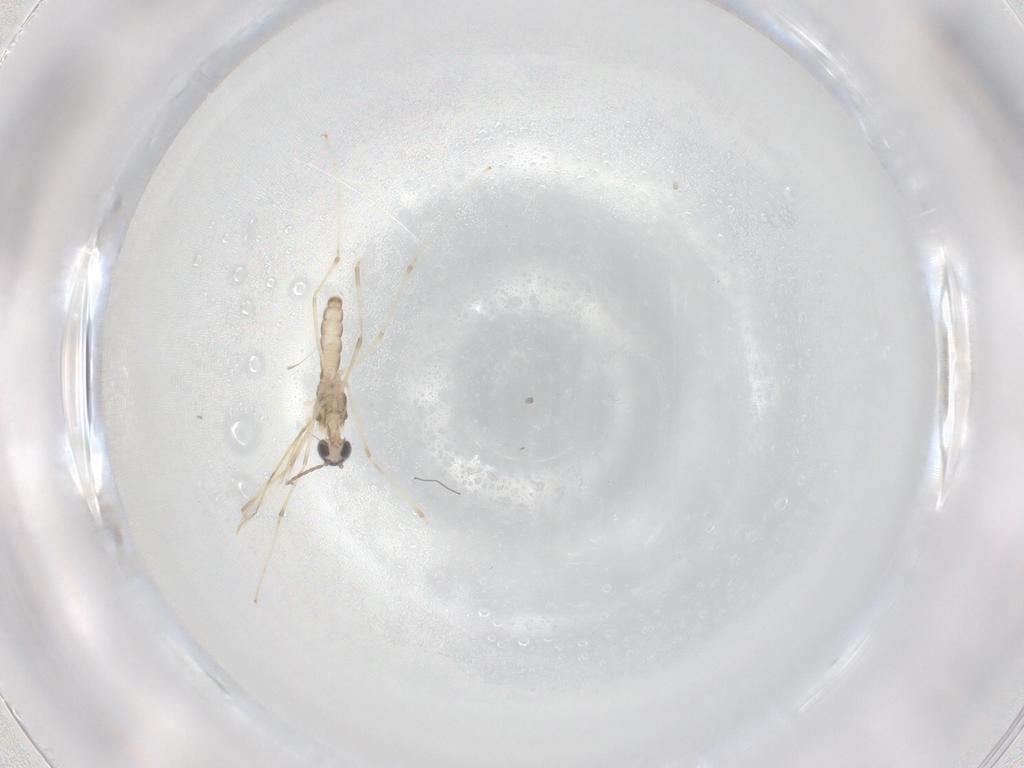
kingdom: Animalia
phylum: Arthropoda
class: Insecta
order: Diptera
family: Cecidomyiidae
